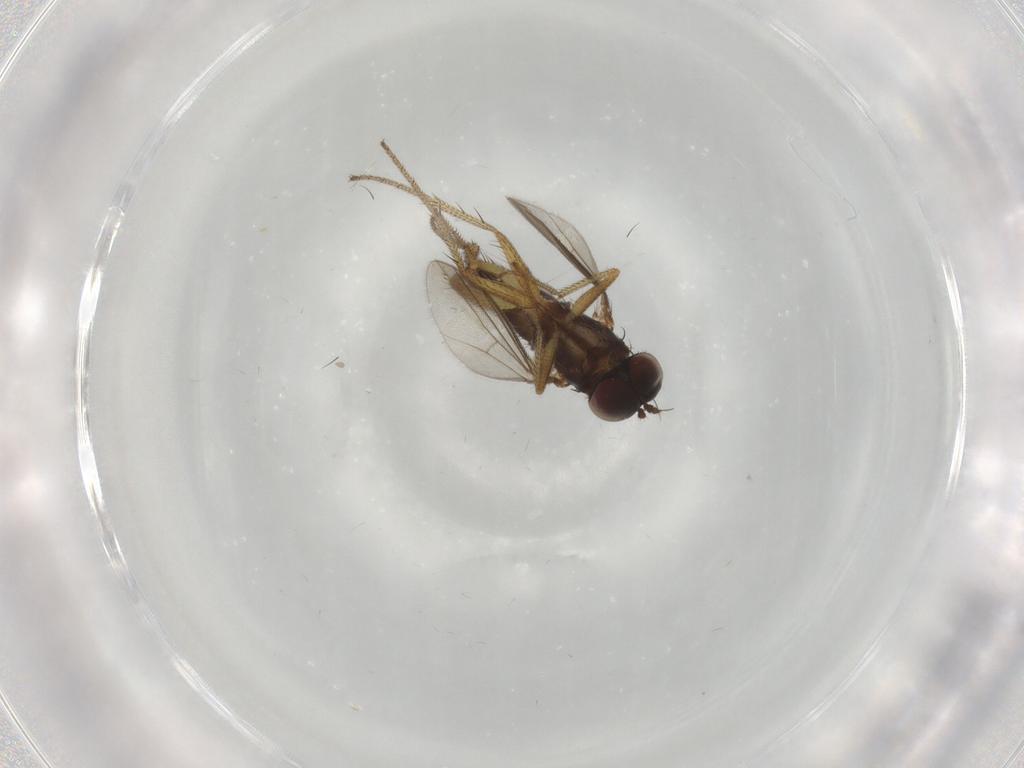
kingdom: Animalia
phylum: Arthropoda
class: Insecta
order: Diptera
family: Chironomidae
